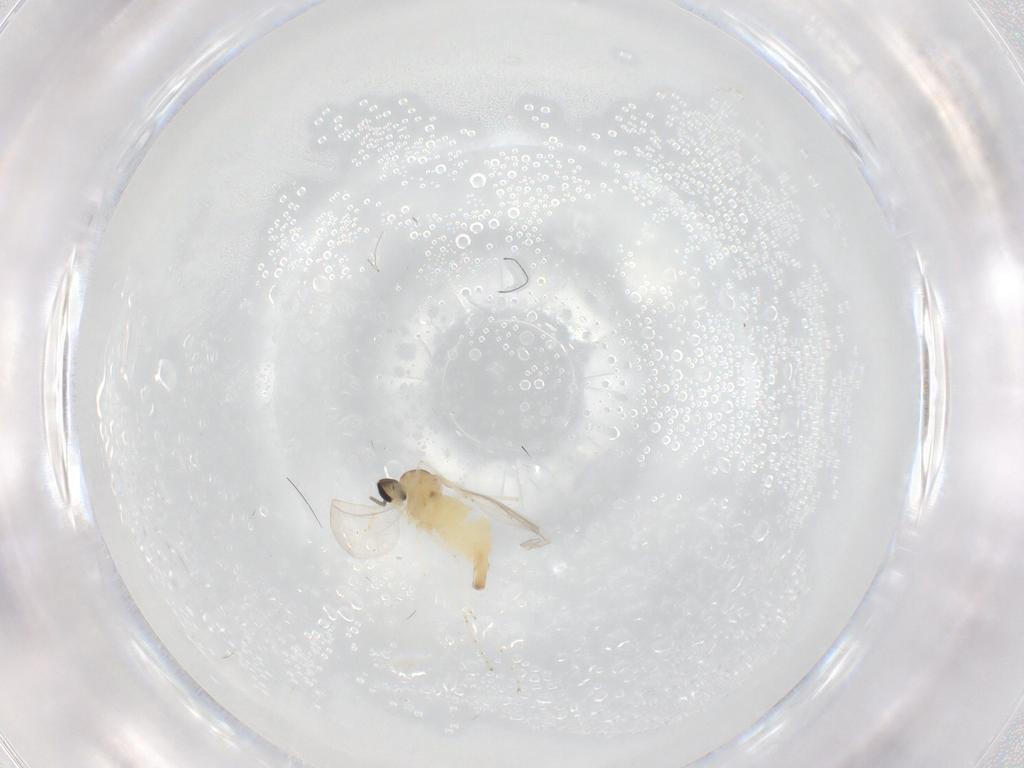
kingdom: Animalia
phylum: Arthropoda
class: Insecta
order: Diptera
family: Cecidomyiidae
